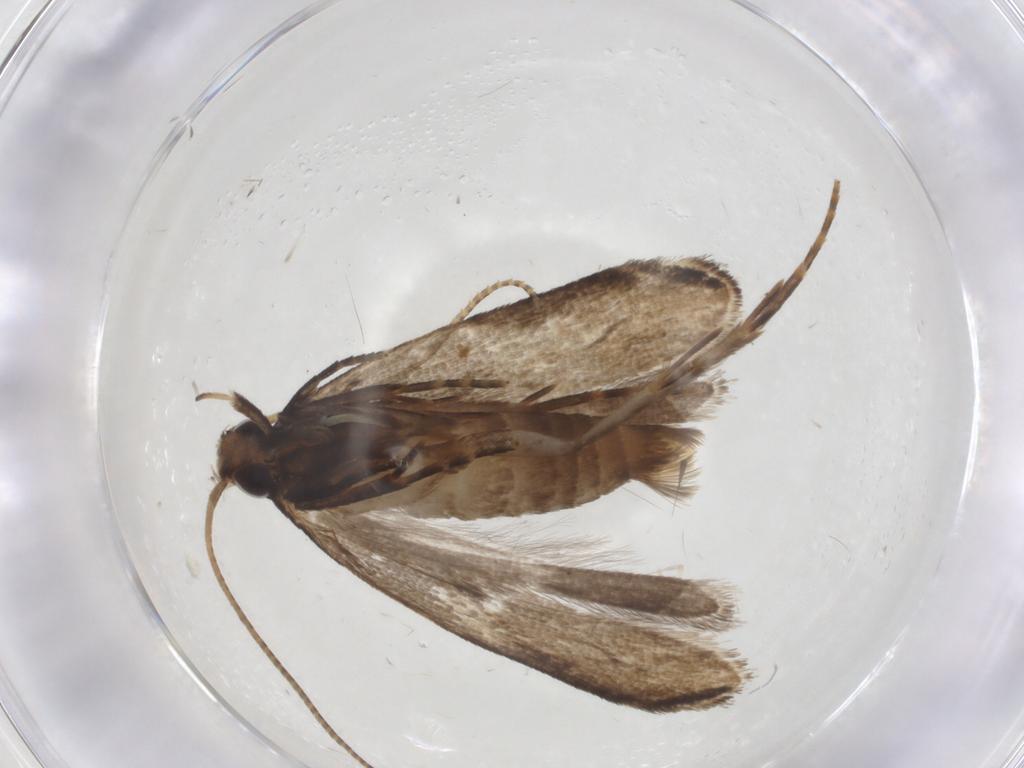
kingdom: Animalia
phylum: Arthropoda
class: Insecta
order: Lepidoptera
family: Gelechiidae
